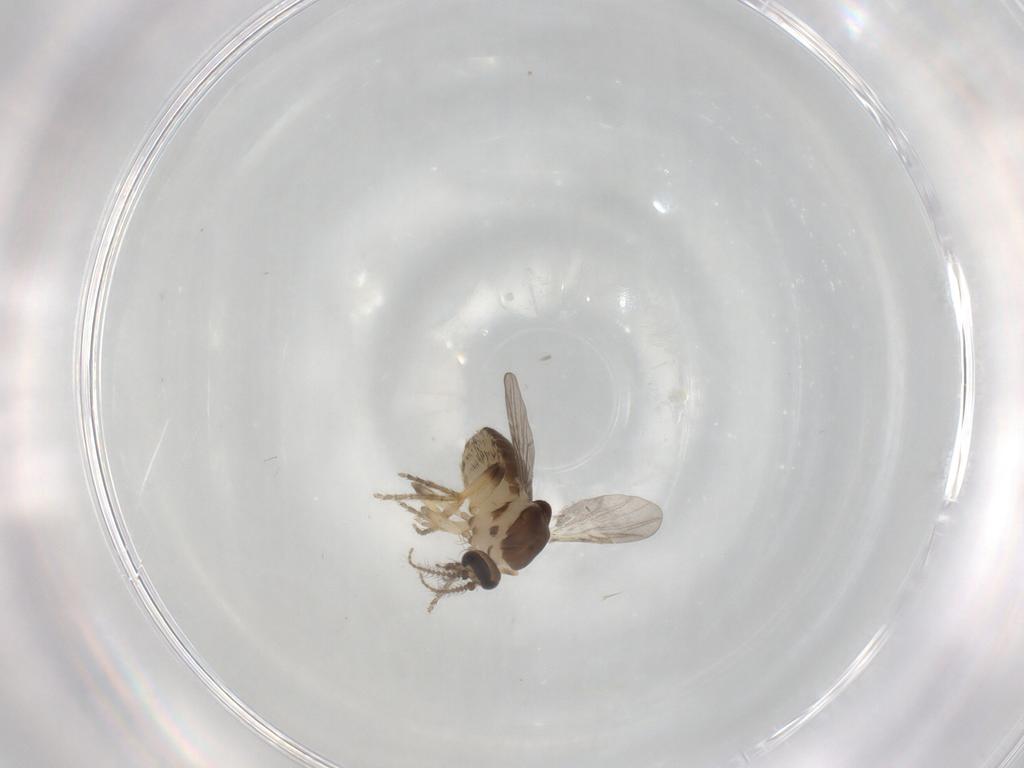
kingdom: Animalia
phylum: Arthropoda
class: Insecta
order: Diptera
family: Ceratopogonidae
